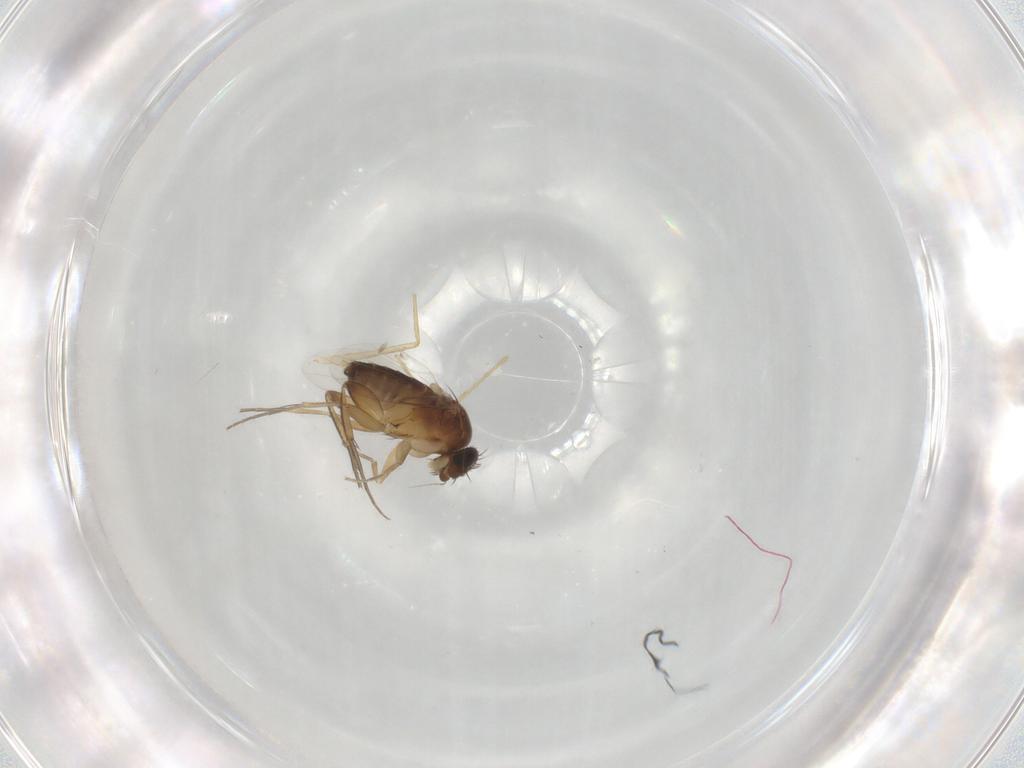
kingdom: Animalia
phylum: Arthropoda
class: Insecta
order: Diptera
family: Psychodidae
